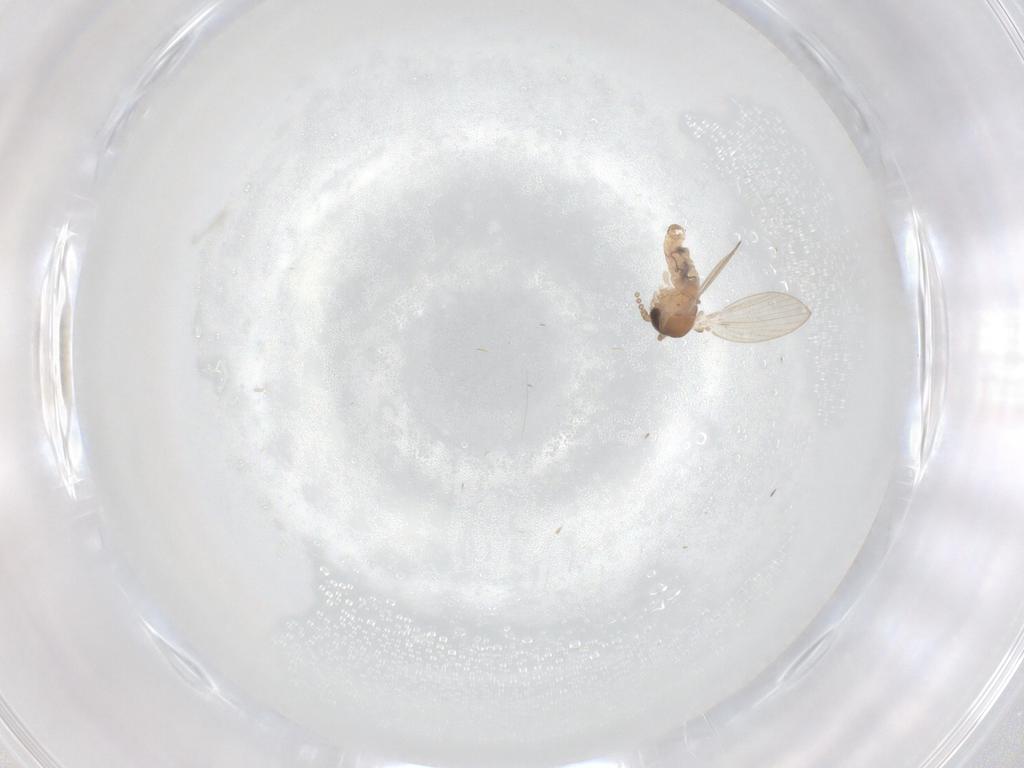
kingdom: Animalia
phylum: Arthropoda
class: Insecta
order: Diptera
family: Psychodidae
